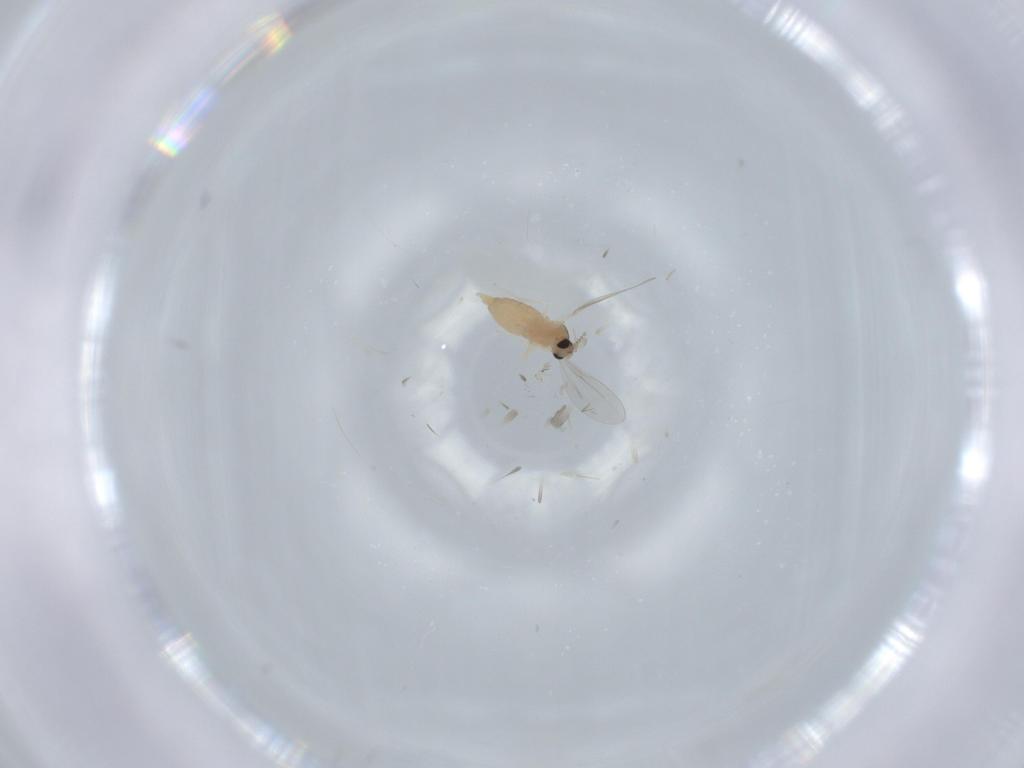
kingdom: Animalia
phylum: Arthropoda
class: Insecta
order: Diptera
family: Cecidomyiidae
